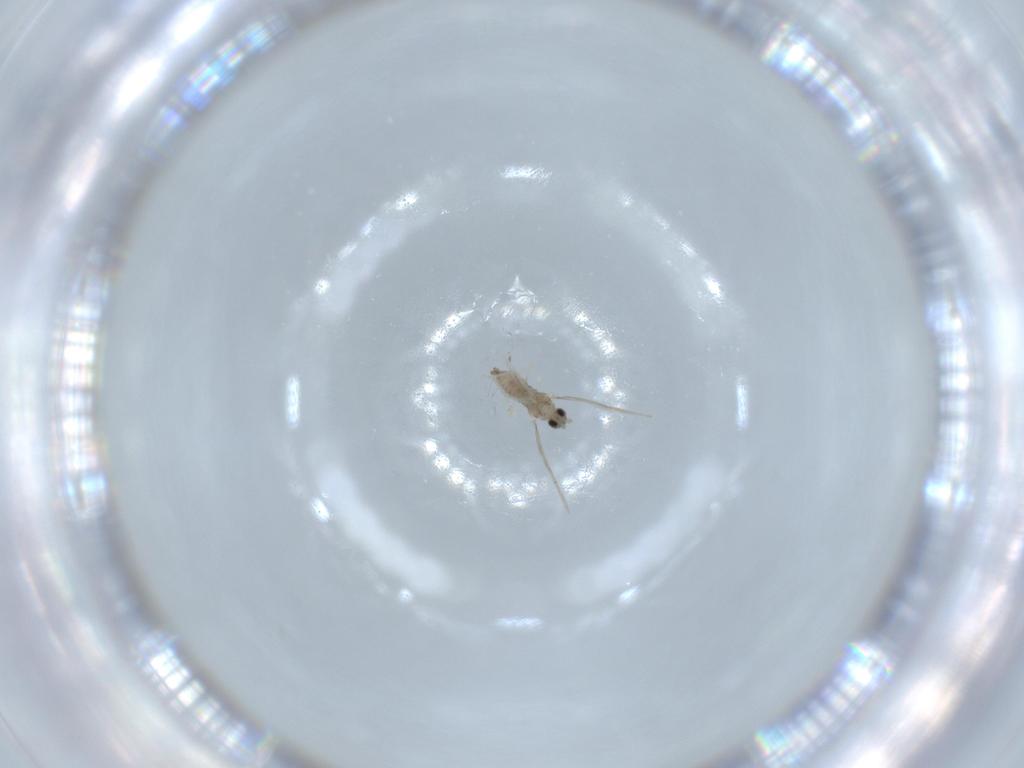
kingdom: Animalia
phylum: Arthropoda
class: Insecta
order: Diptera
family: Cecidomyiidae
